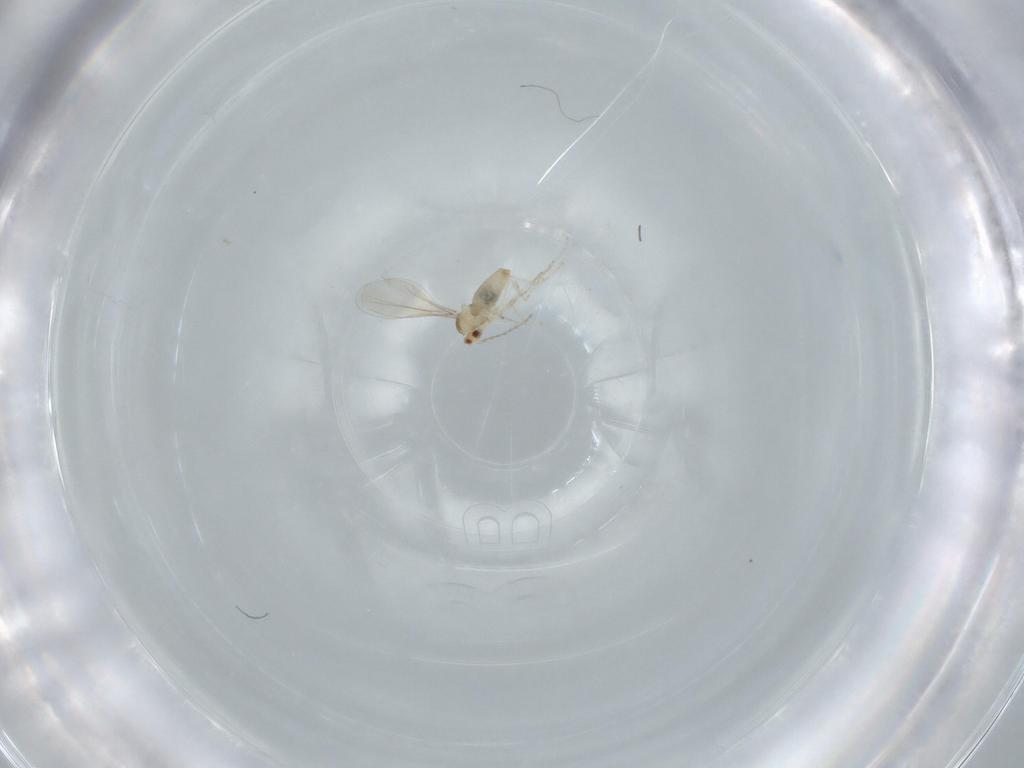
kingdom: Animalia
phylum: Arthropoda
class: Insecta
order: Diptera
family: Cecidomyiidae
